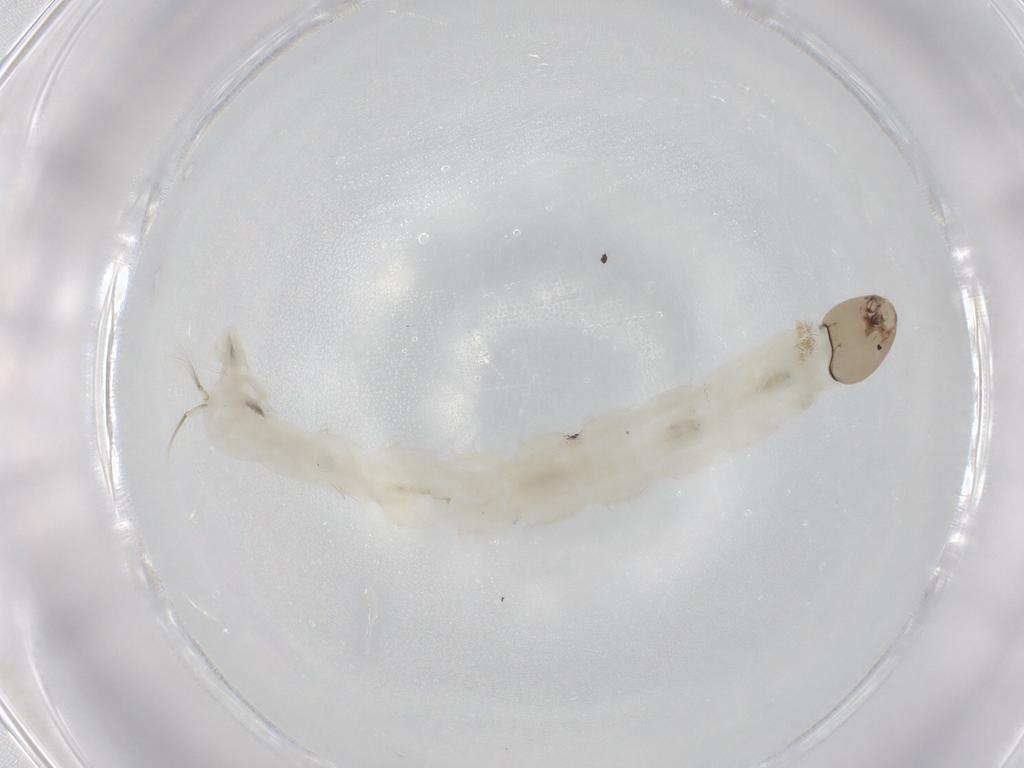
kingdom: Animalia
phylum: Arthropoda
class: Insecta
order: Diptera
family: Chironomidae
